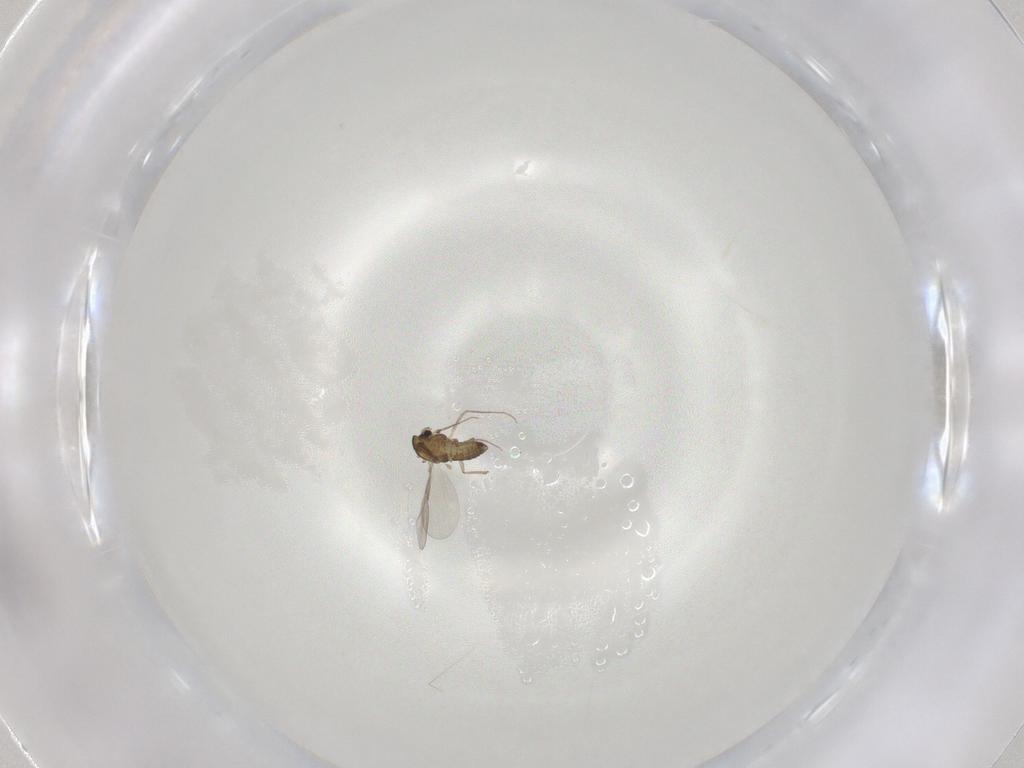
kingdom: Animalia
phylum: Arthropoda
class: Insecta
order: Diptera
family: Chironomidae
